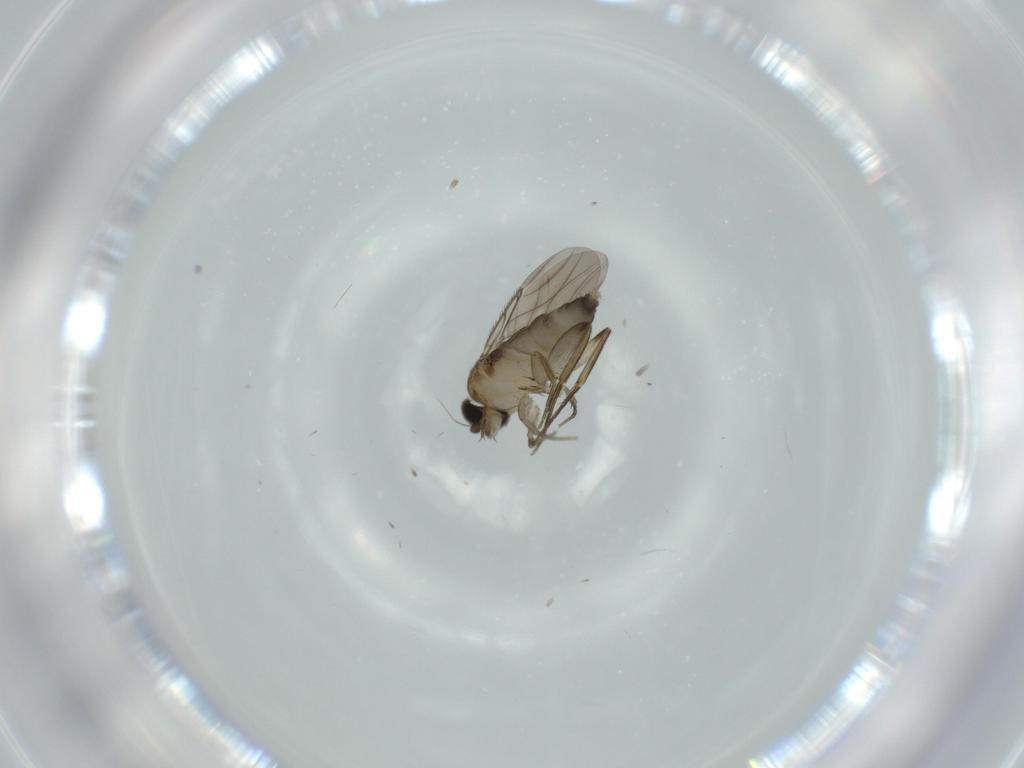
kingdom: Animalia
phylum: Arthropoda
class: Insecta
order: Diptera
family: Phoridae
